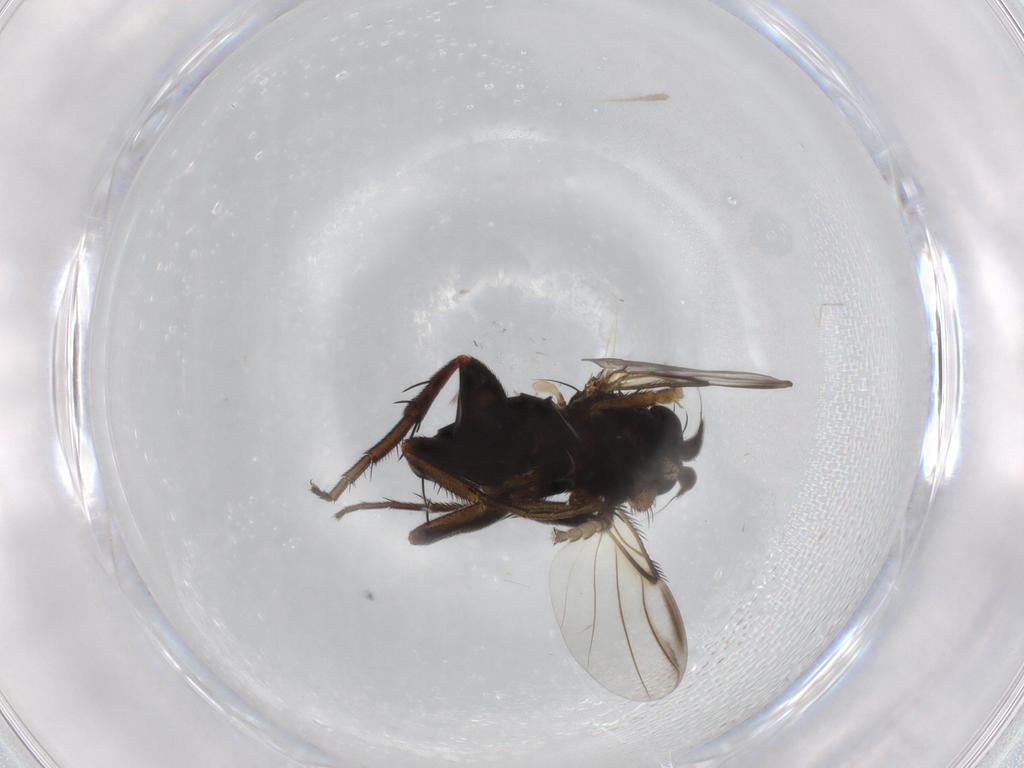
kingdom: Animalia
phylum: Arthropoda
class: Insecta
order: Diptera
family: Phoridae
